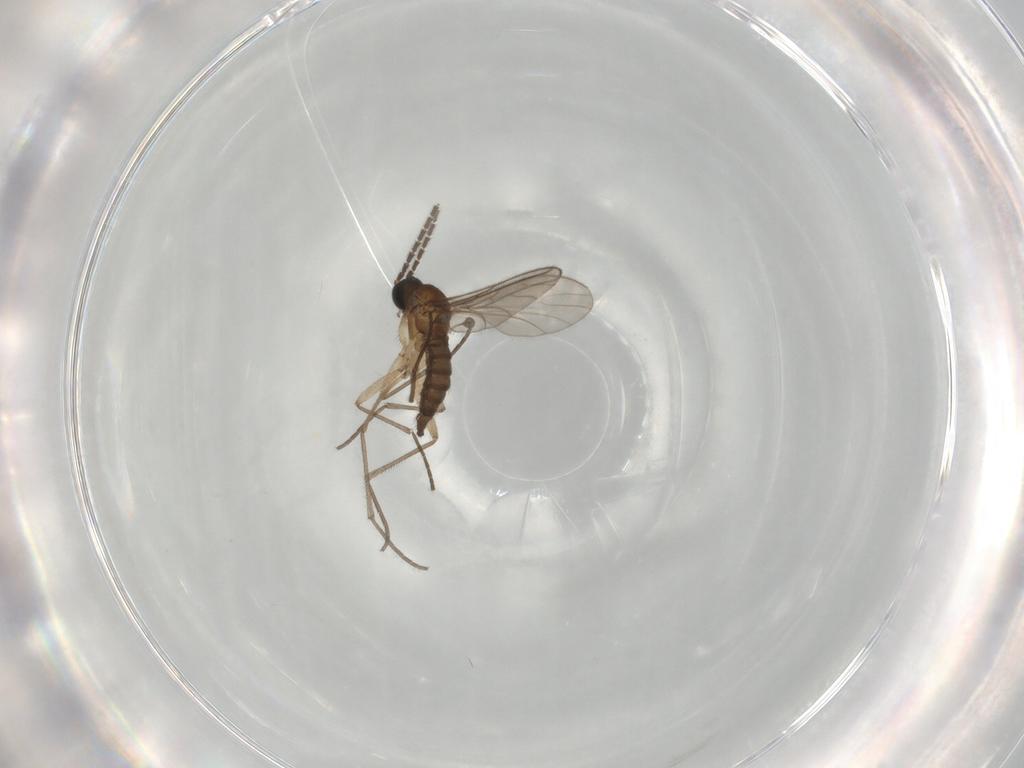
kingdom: Animalia
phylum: Arthropoda
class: Insecta
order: Diptera
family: Sciaridae
